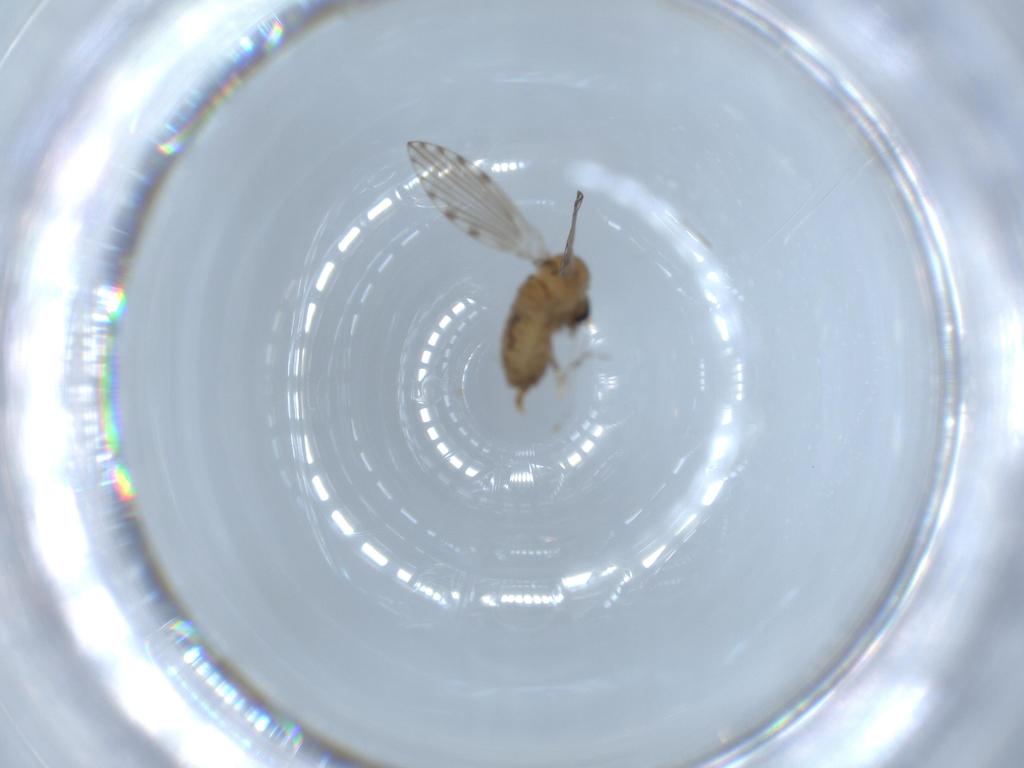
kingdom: Animalia
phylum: Arthropoda
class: Insecta
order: Diptera
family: Psychodidae
